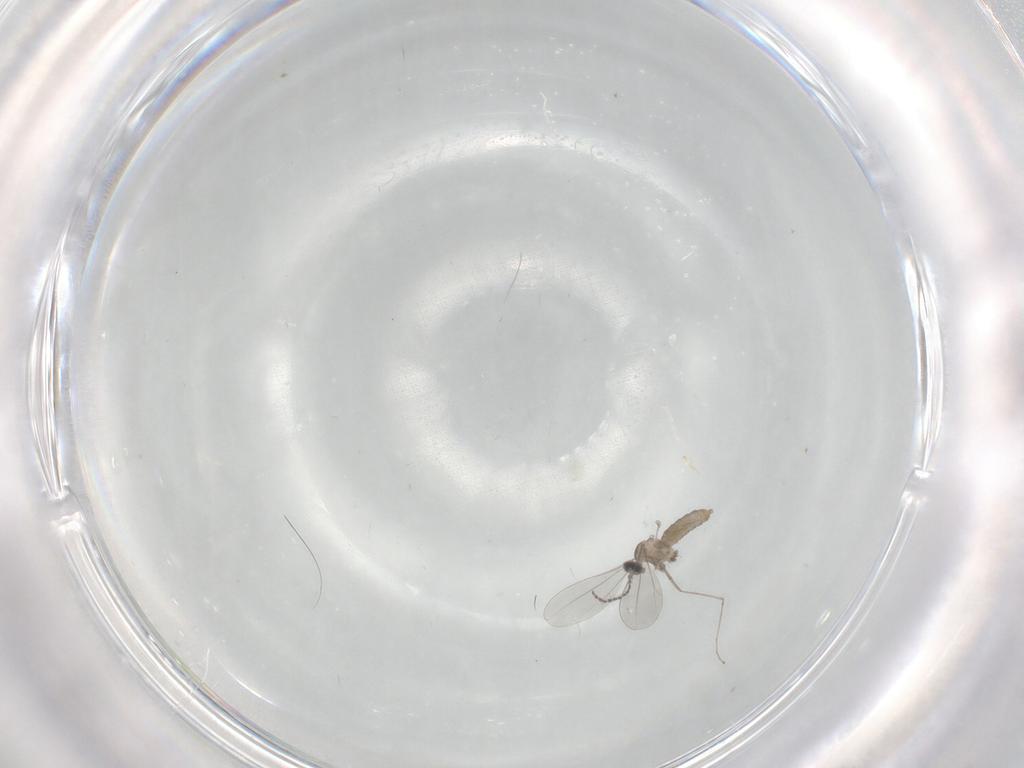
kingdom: Animalia
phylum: Arthropoda
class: Insecta
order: Diptera
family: Cecidomyiidae
